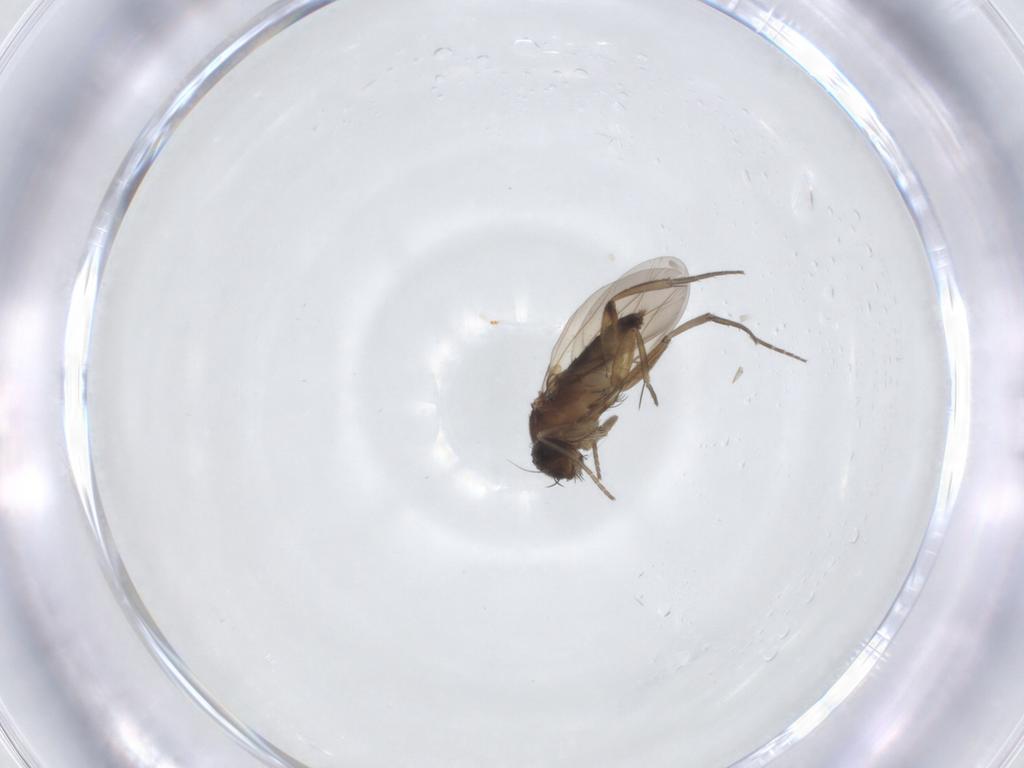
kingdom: Animalia
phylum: Arthropoda
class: Insecta
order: Diptera
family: Phoridae
